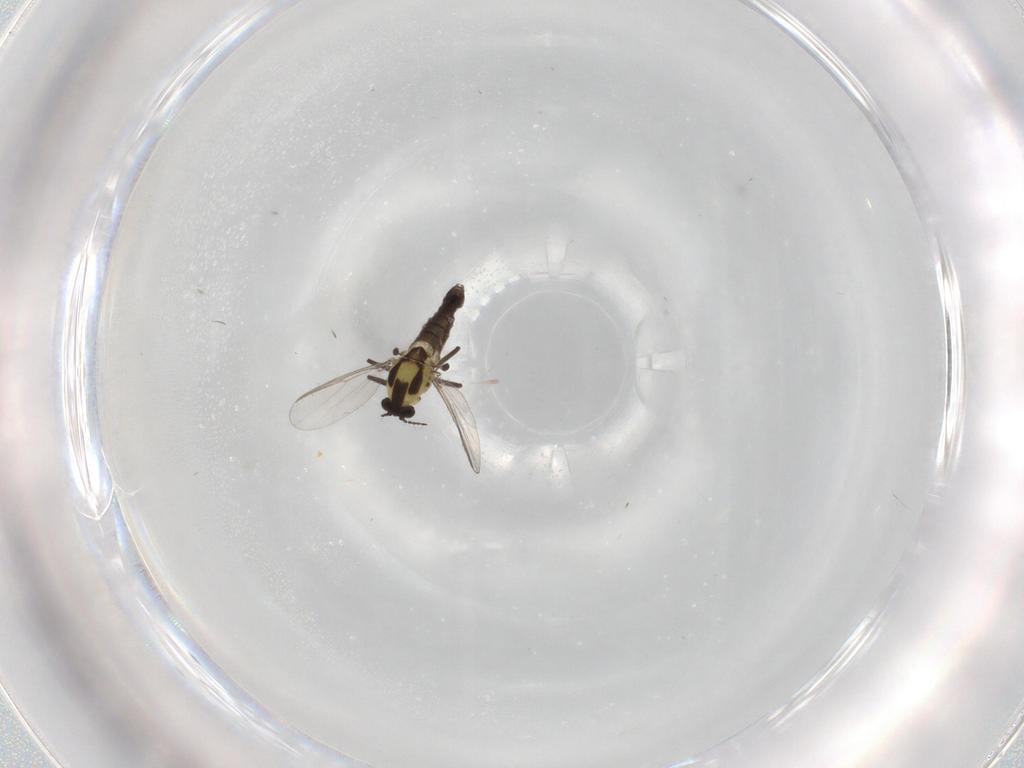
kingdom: Animalia
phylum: Arthropoda
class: Insecta
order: Diptera
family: Chironomidae
